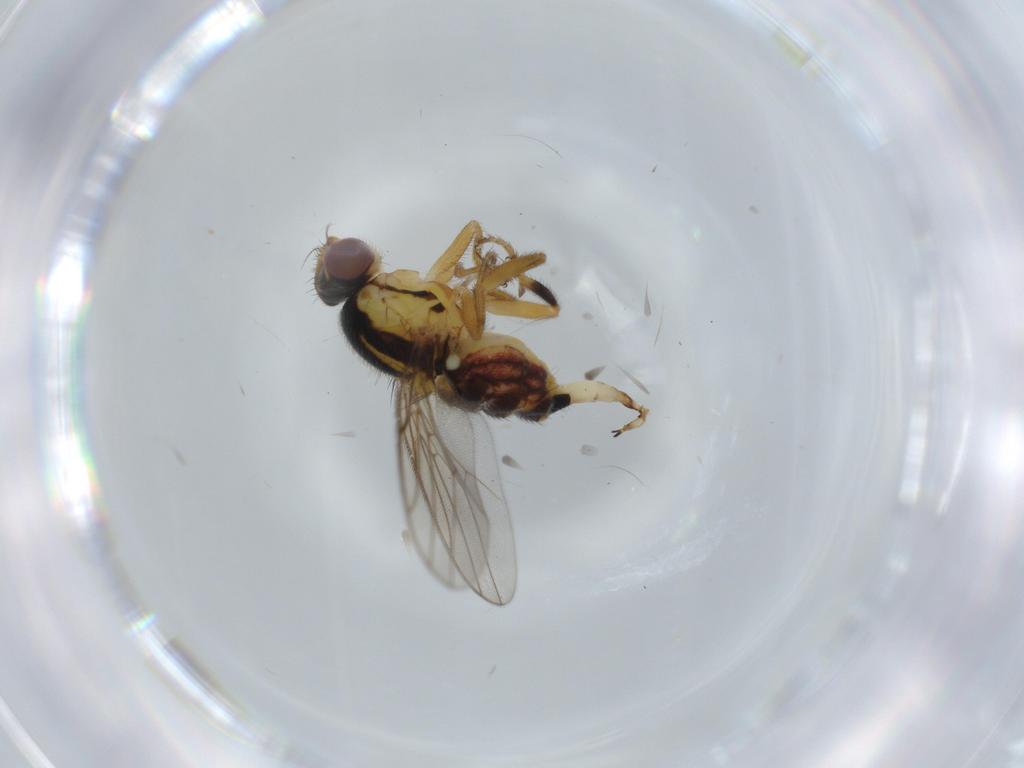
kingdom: Animalia
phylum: Arthropoda
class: Insecta
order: Diptera
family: Chloropidae
